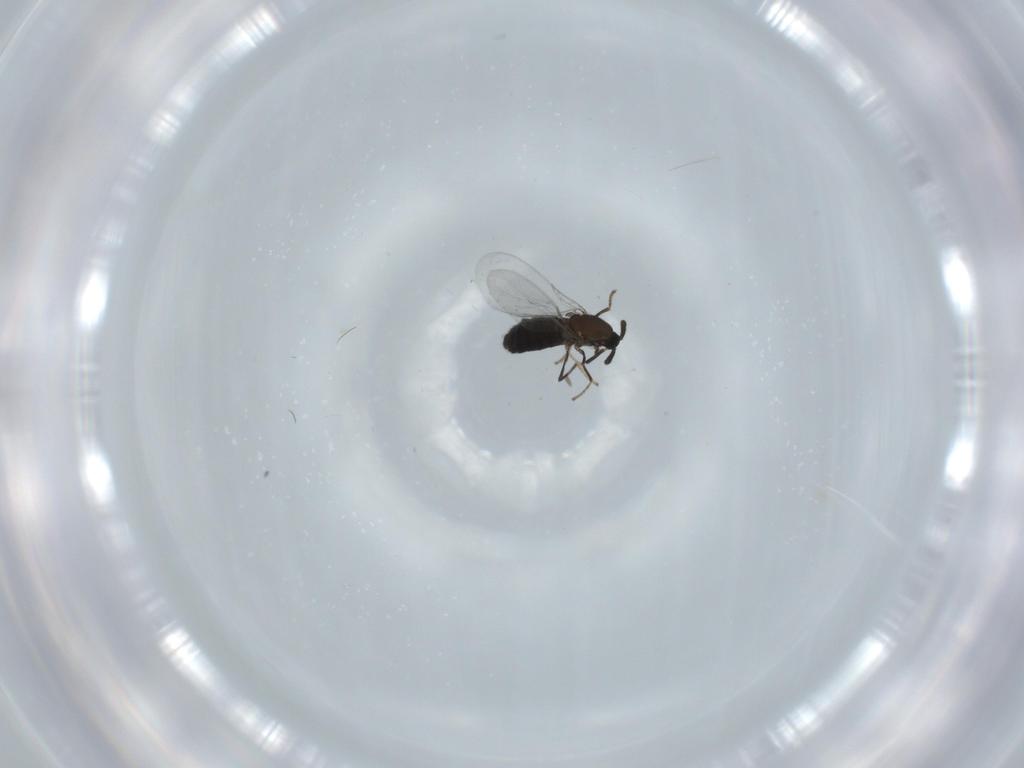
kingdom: Animalia
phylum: Arthropoda
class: Insecta
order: Diptera
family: Scatopsidae
